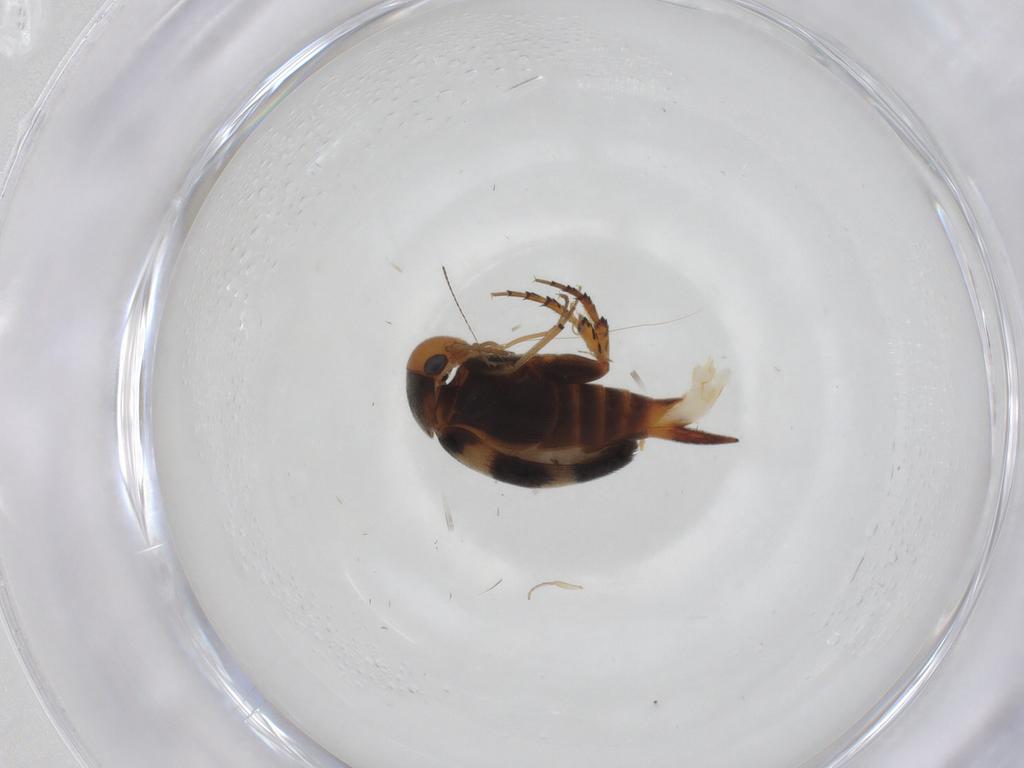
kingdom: Animalia
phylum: Arthropoda
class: Insecta
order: Coleoptera
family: Mordellidae
